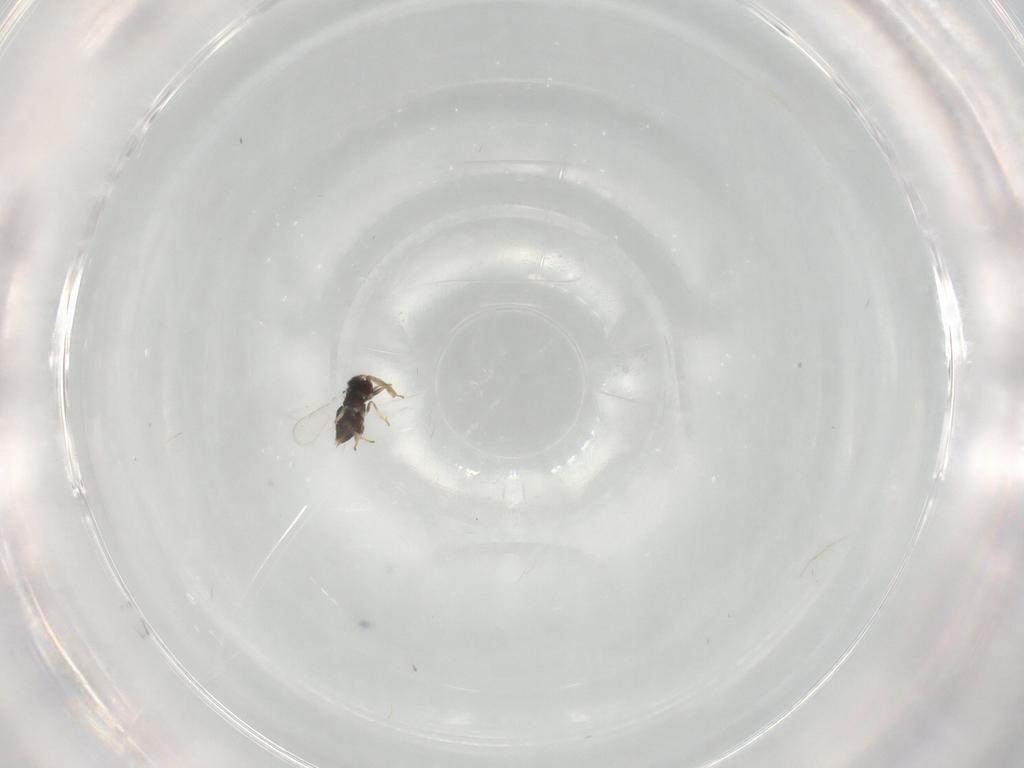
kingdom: Animalia
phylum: Arthropoda
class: Insecta
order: Hymenoptera
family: Aphelinidae
